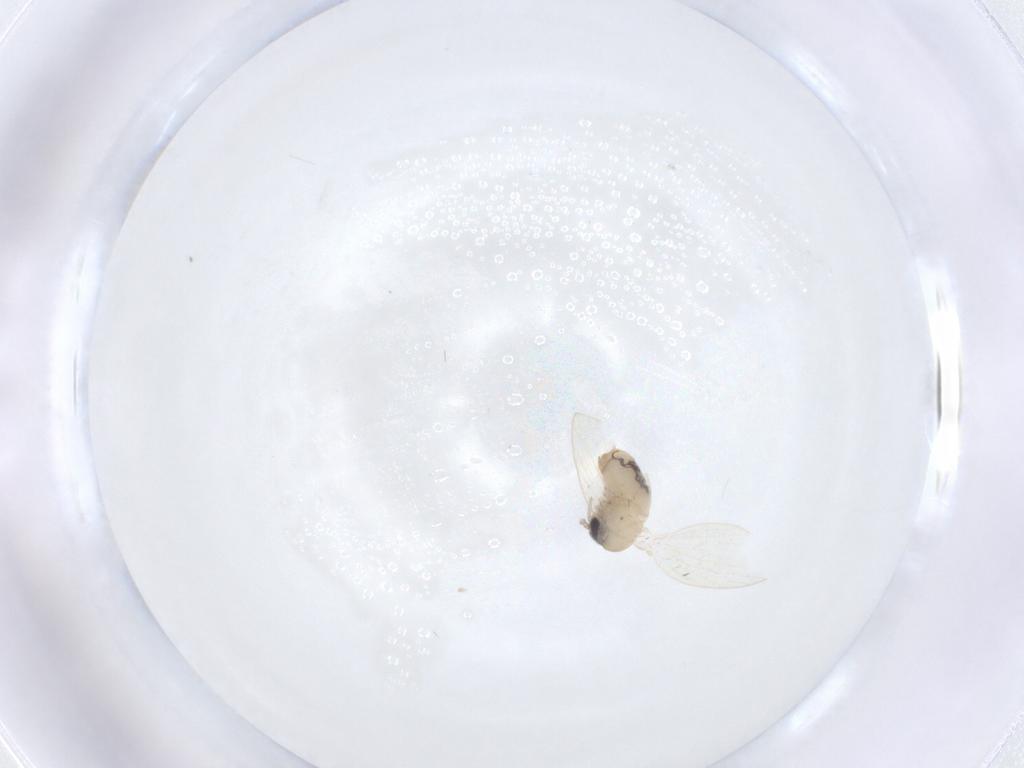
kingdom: Animalia
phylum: Arthropoda
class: Insecta
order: Diptera
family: Psychodidae
